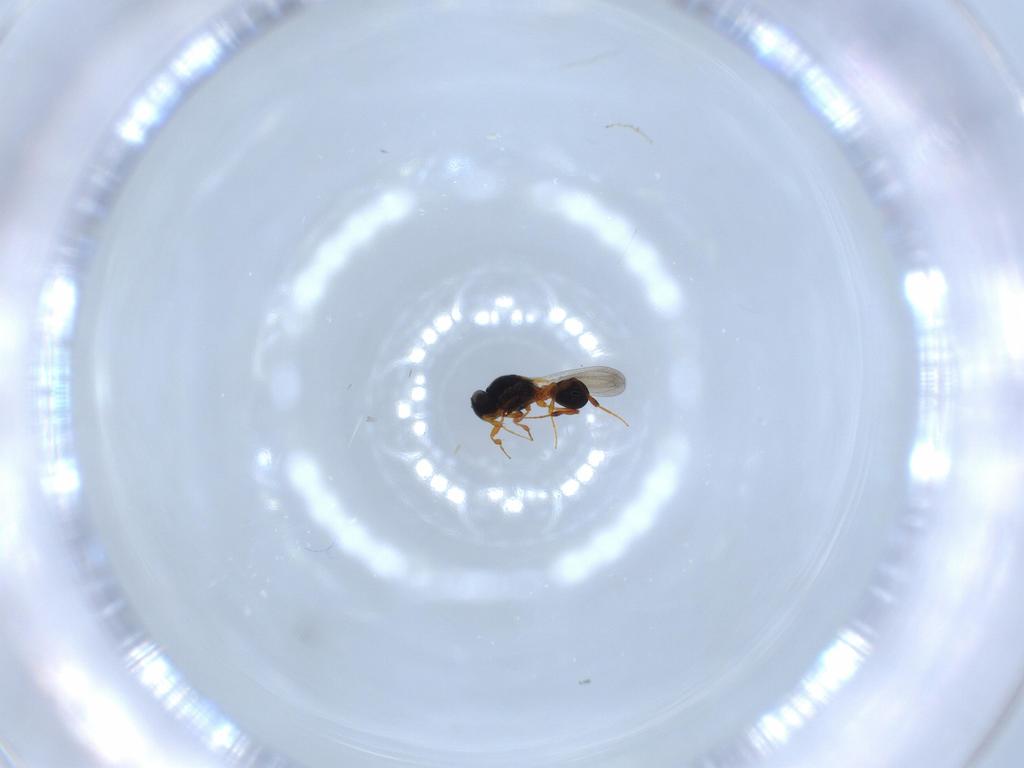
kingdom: Animalia
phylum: Arthropoda
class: Insecta
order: Hymenoptera
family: Platygastridae
